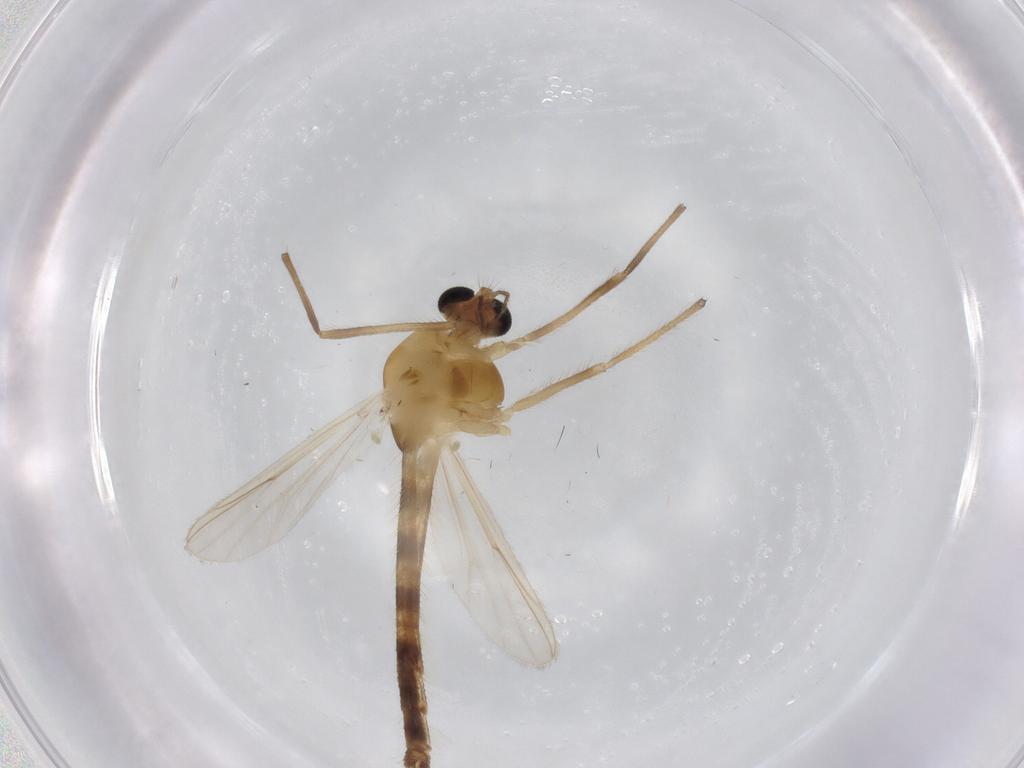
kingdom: Animalia
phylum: Arthropoda
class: Insecta
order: Diptera
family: Chironomidae
